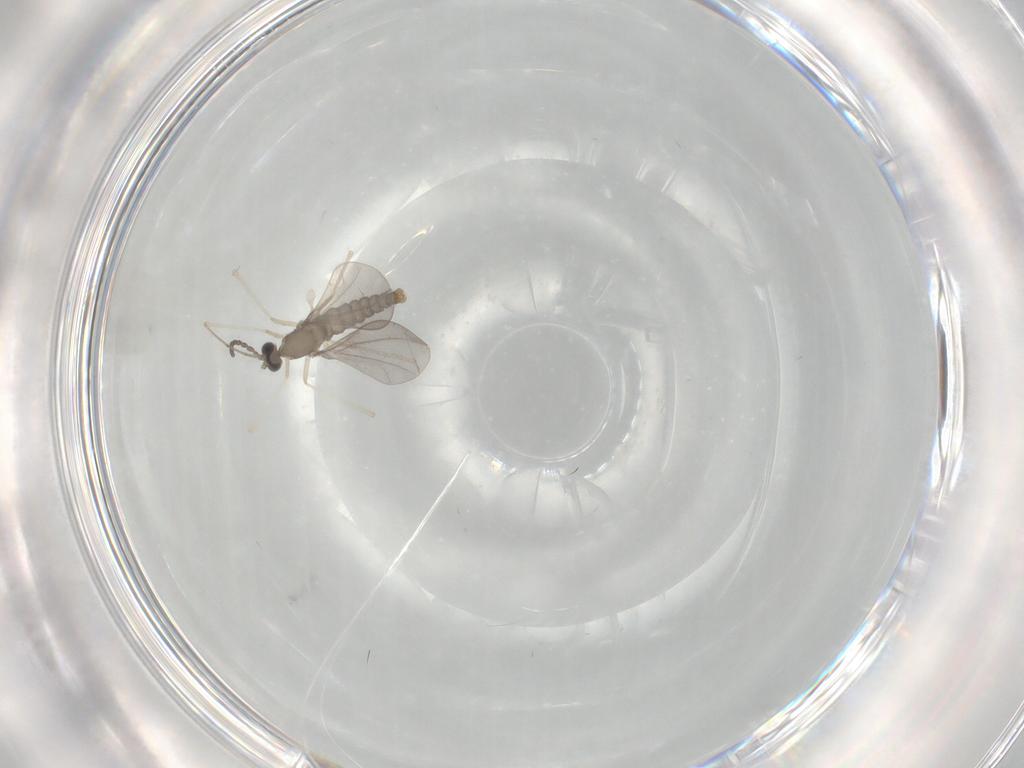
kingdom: Animalia
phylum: Arthropoda
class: Insecta
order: Diptera
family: Cecidomyiidae
